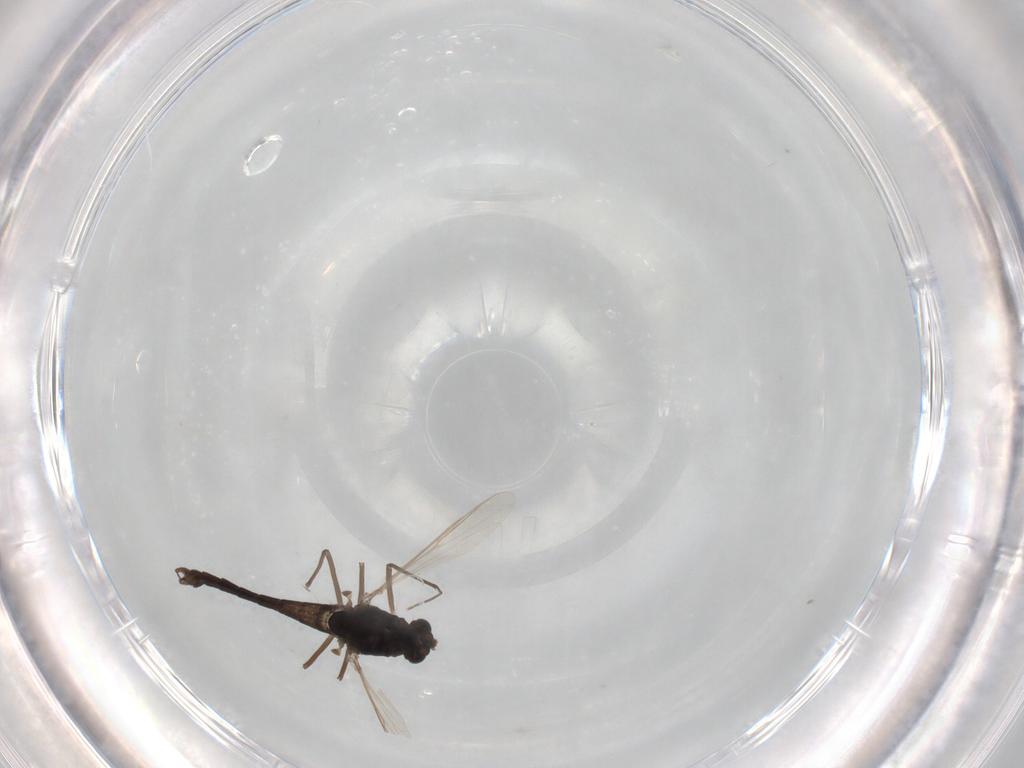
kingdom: Animalia
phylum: Arthropoda
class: Insecta
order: Diptera
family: Chironomidae
